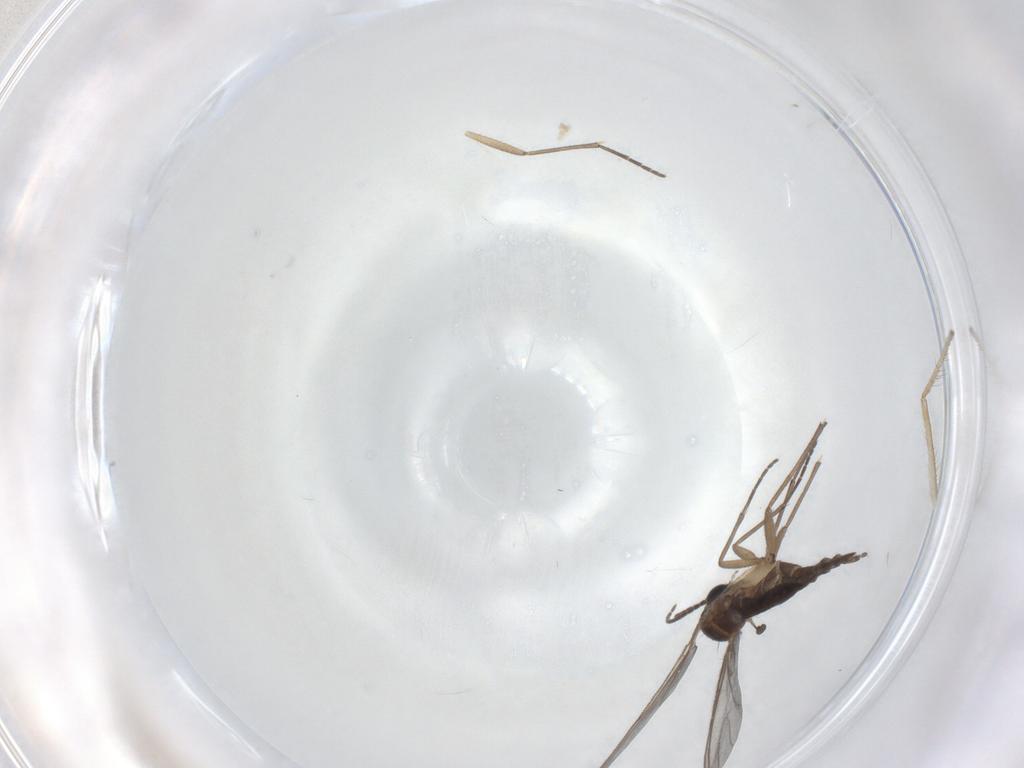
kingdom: Animalia
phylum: Arthropoda
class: Insecta
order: Diptera
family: Sciaridae
